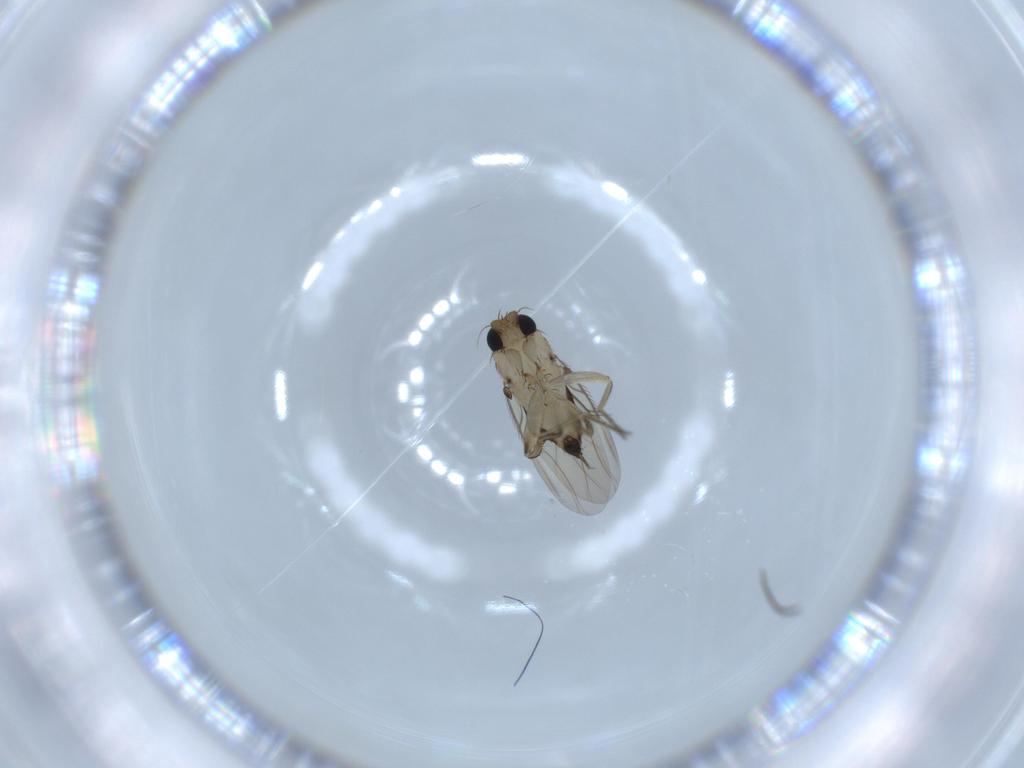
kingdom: Animalia
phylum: Arthropoda
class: Insecta
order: Diptera
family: Phoridae
